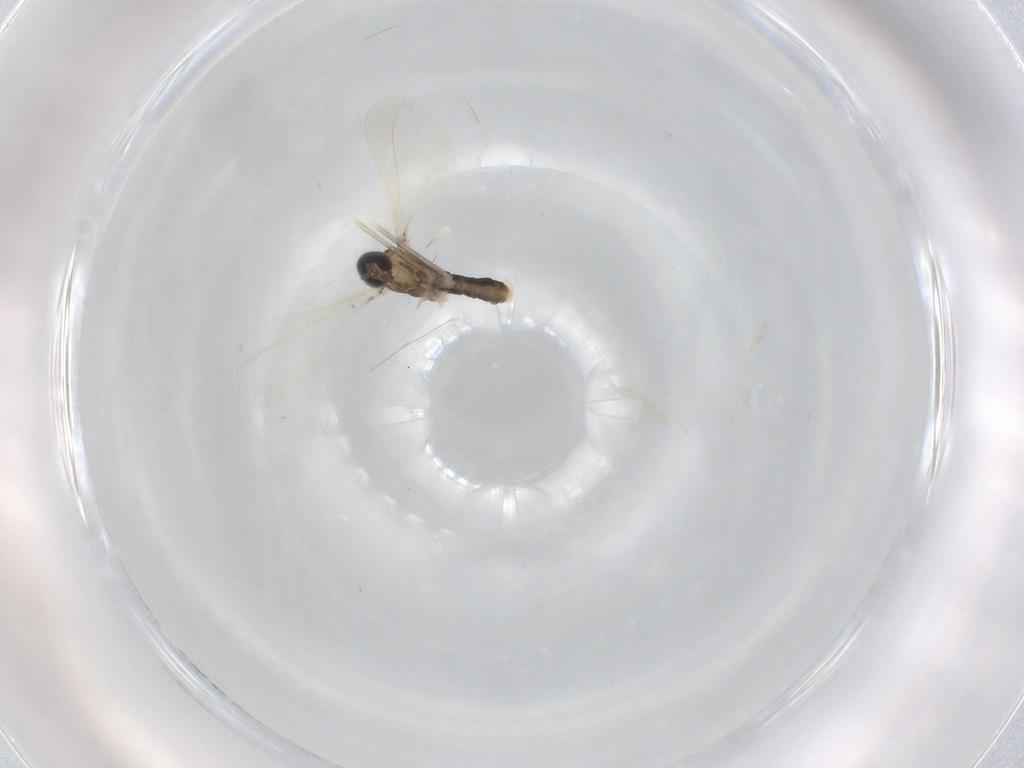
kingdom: Animalia
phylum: Arthropoda
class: Insecta
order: Diptera
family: Cecidomyiidae
